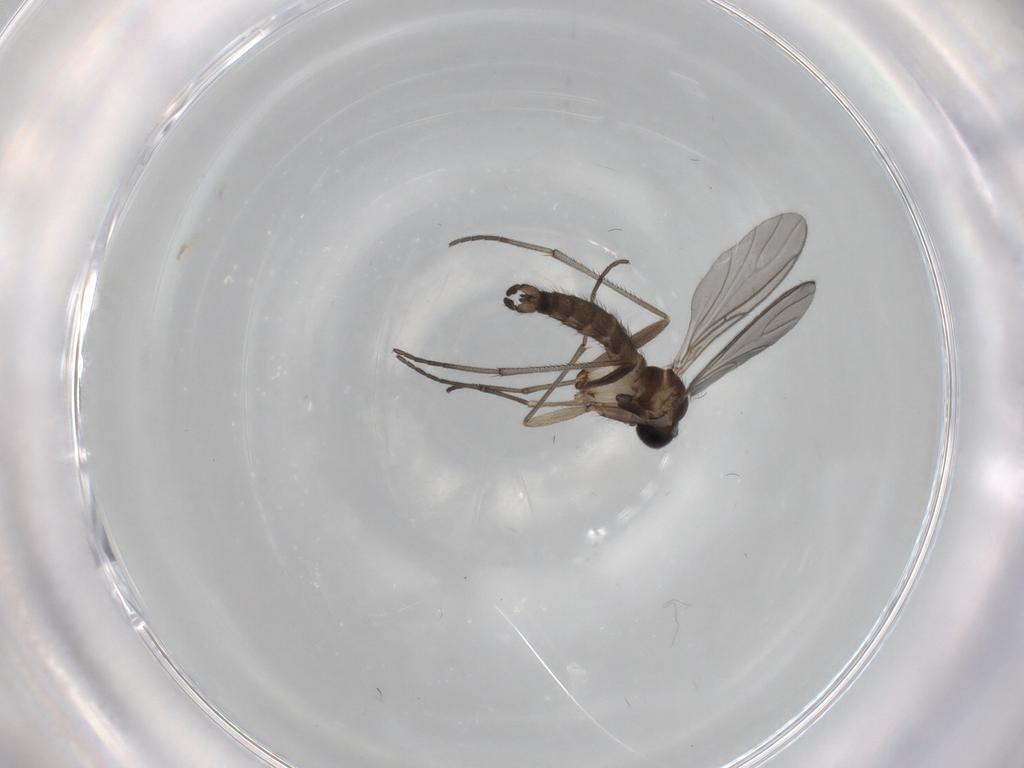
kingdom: Animalia
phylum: Arthropoda
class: Insecta
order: Diptera
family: Sciaridae
